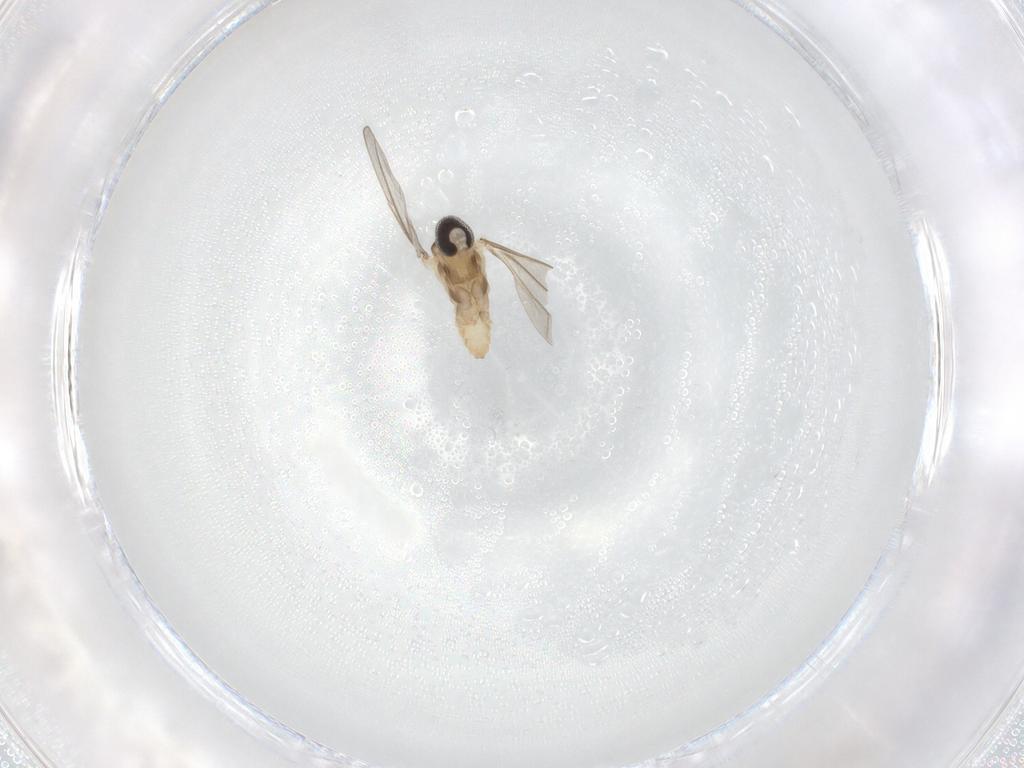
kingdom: Animalia
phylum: Arthropoda
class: Insecta
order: Diptera
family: Cecidomyiidae
